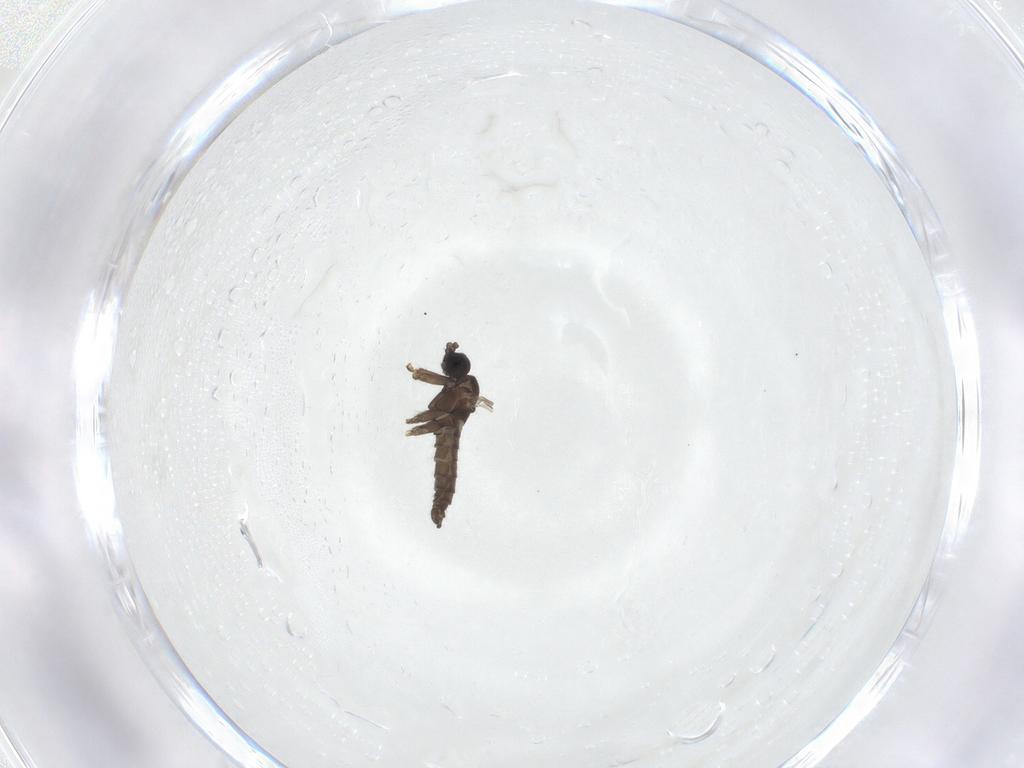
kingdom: Animalia
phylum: Arthropoda
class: Insecta
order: Diptera
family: Sciaridae
